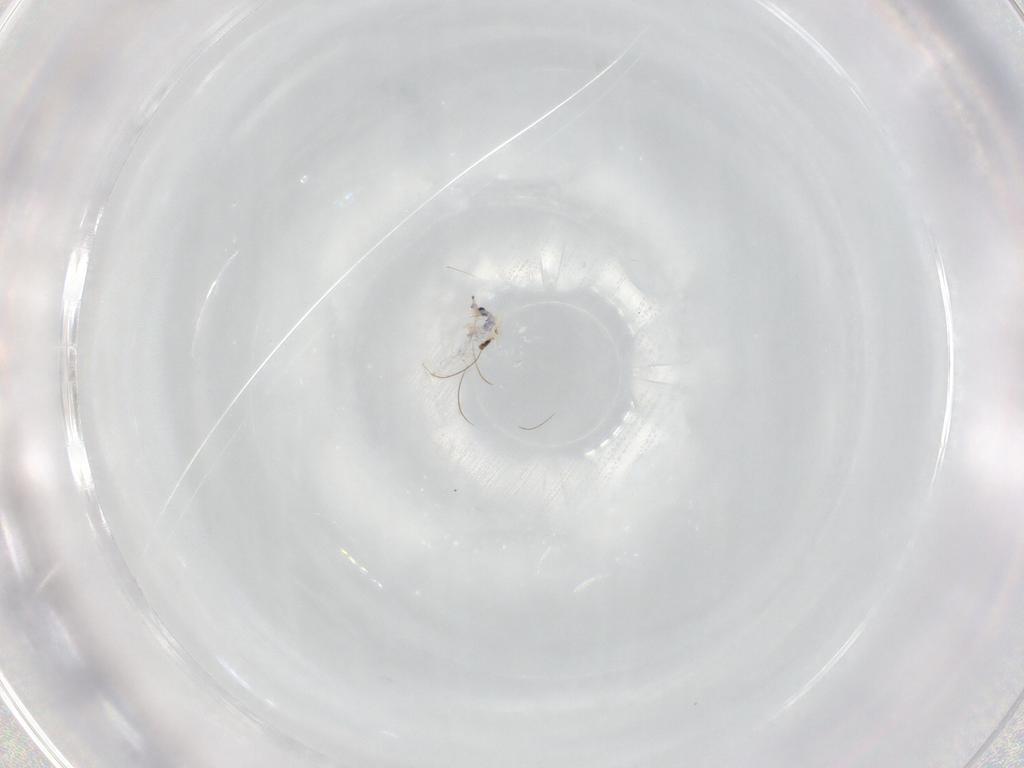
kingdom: Animalia
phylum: Arthropoda
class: Collembola
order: Entomobryomorpha
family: Entomobryidae
